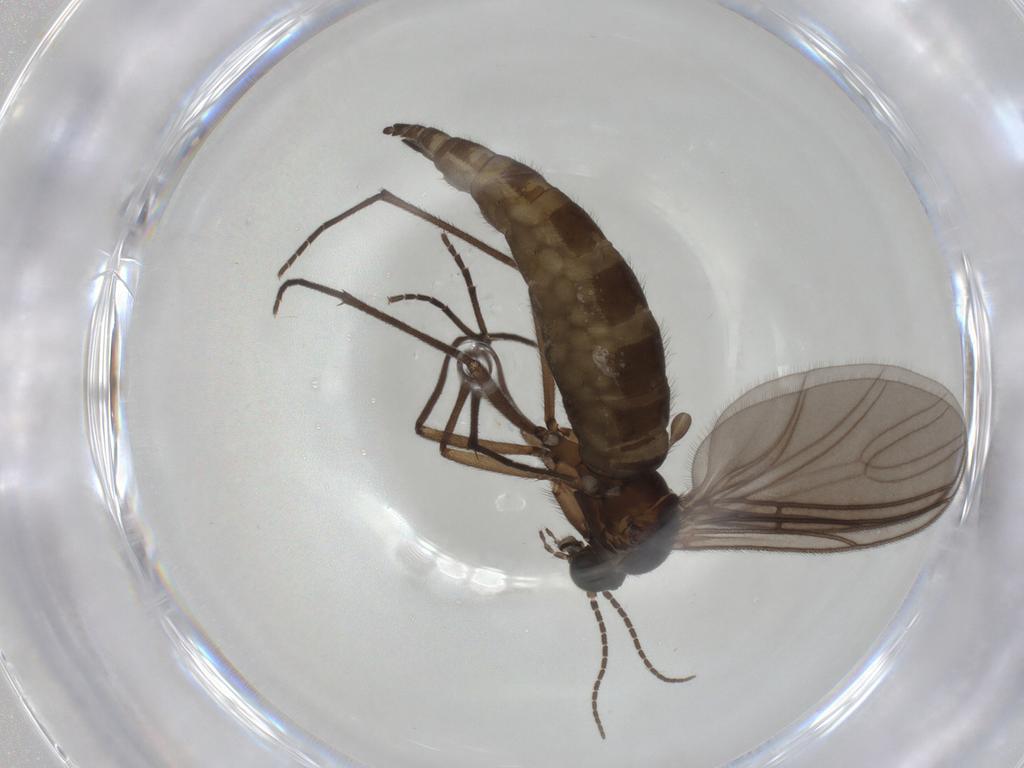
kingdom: Animalia
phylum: Arthropoda
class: Insecta
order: Diptera
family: Sciaridae
